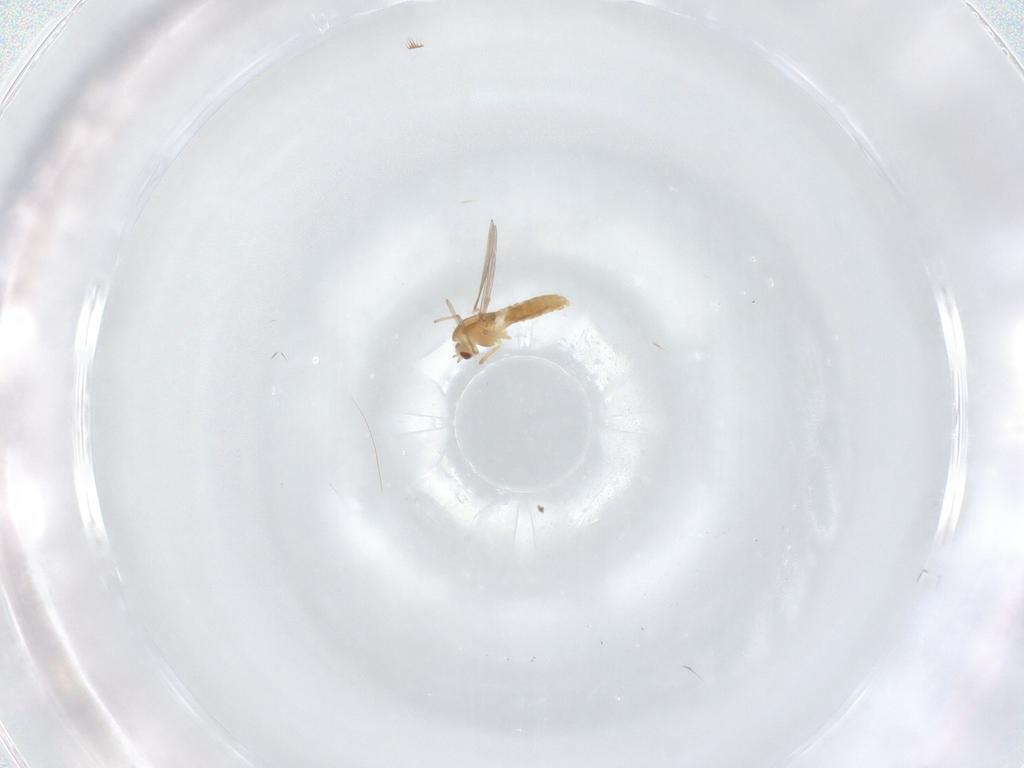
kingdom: Animalia
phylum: Arthropoda
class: Insecta
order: Diptera
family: Chironomidae
